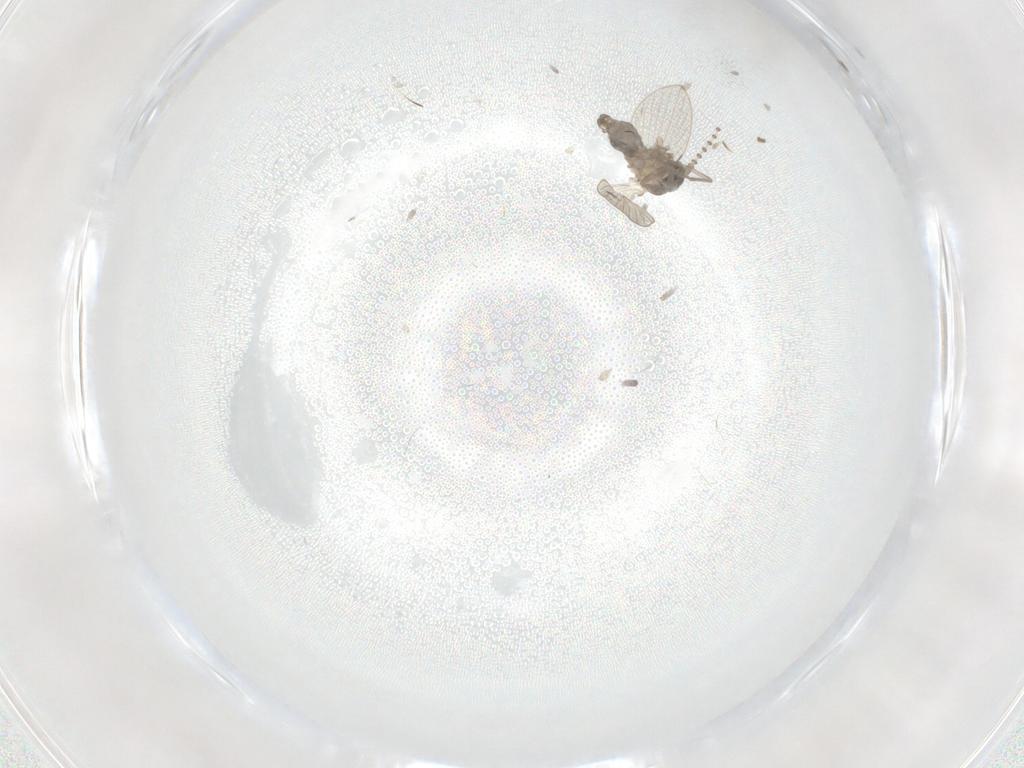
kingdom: Animalia
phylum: Arthropoda
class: Insecta
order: Diptera
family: Psychodidae
